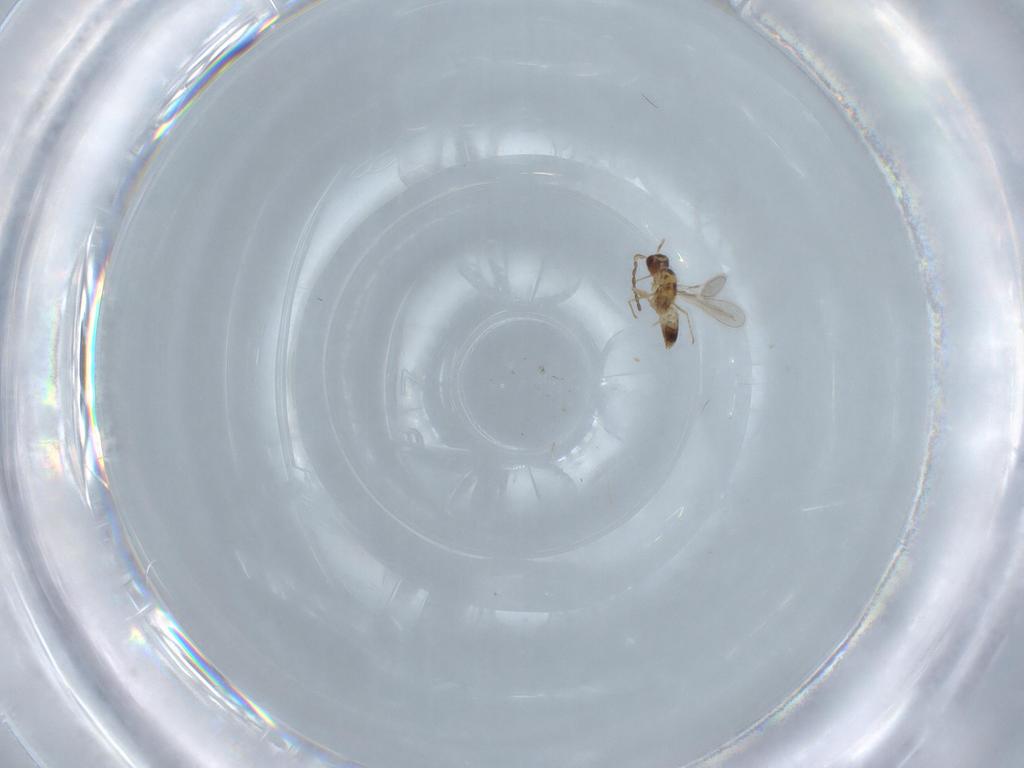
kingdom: Animalia
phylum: Arthropoda
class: Insecta
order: Hymenoptera
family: Scelionidae
